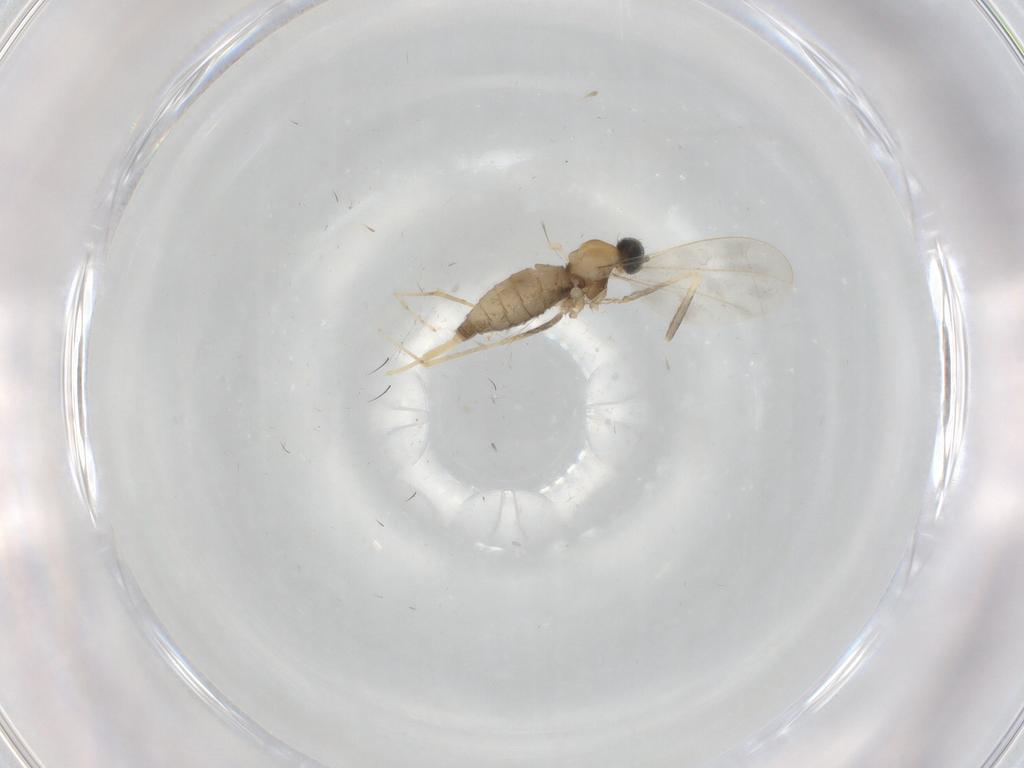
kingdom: Animalia
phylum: Arthropoda
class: Insecta
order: Diptera
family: Cecidomyiidae
